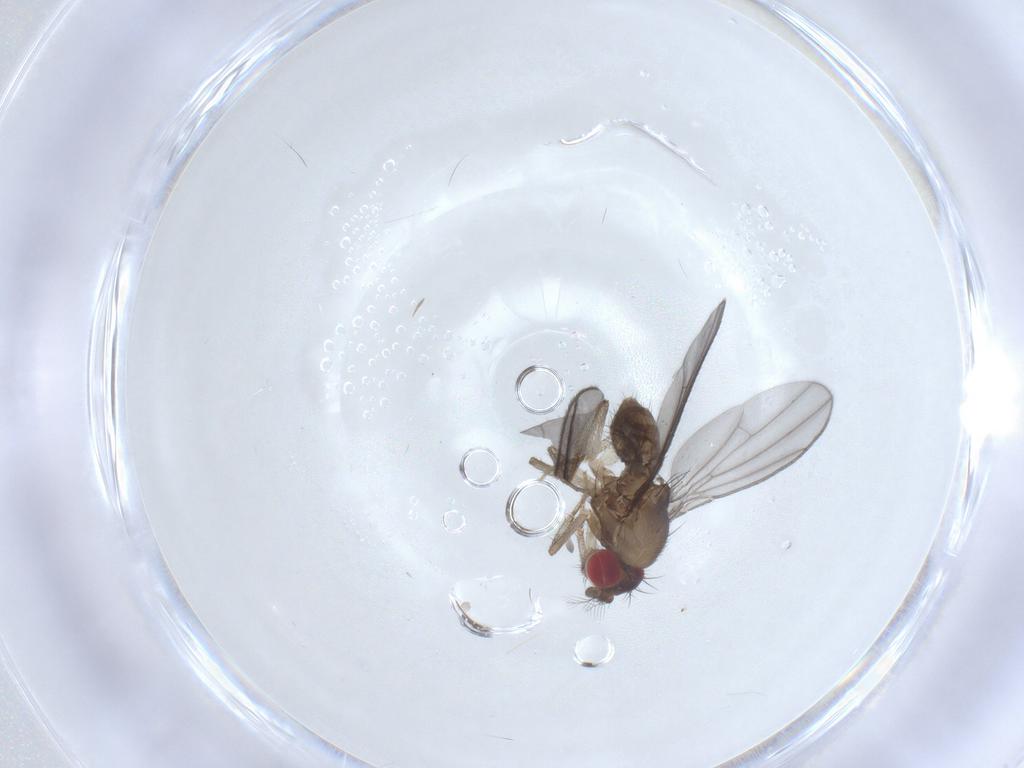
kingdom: Animalia
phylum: Arthropoda
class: Insecta
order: Diptera
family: Drosophilidae
